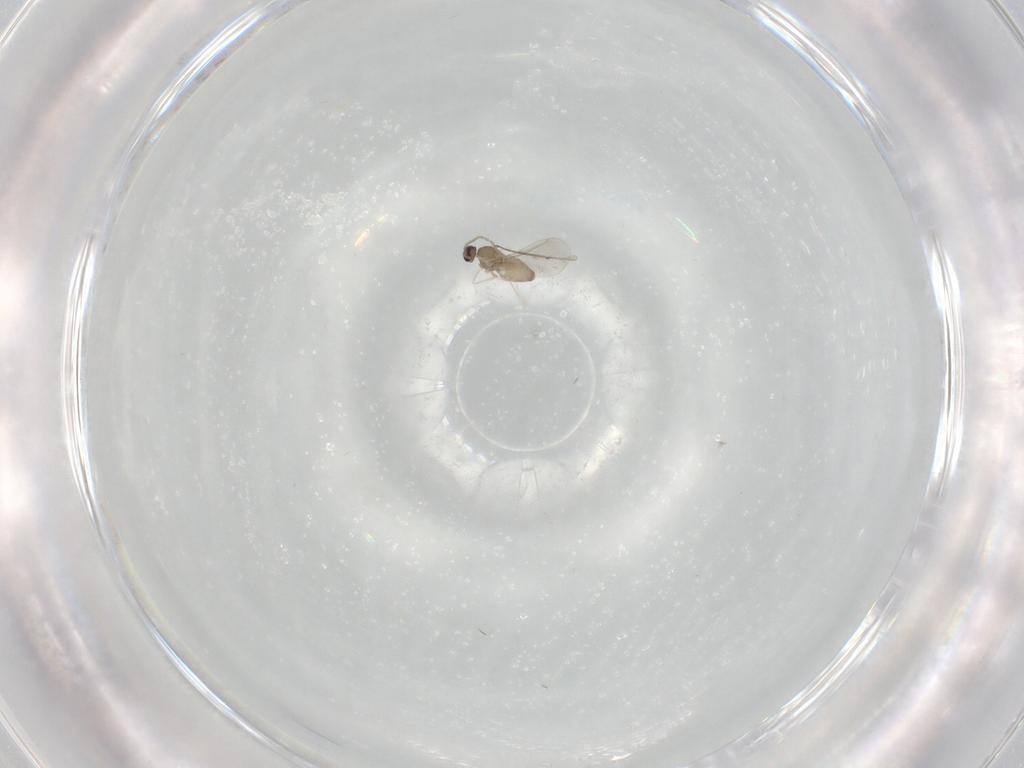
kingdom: Animalia
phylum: Arthropoda
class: Insecta
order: Diptera
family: Cecidomyiidae
